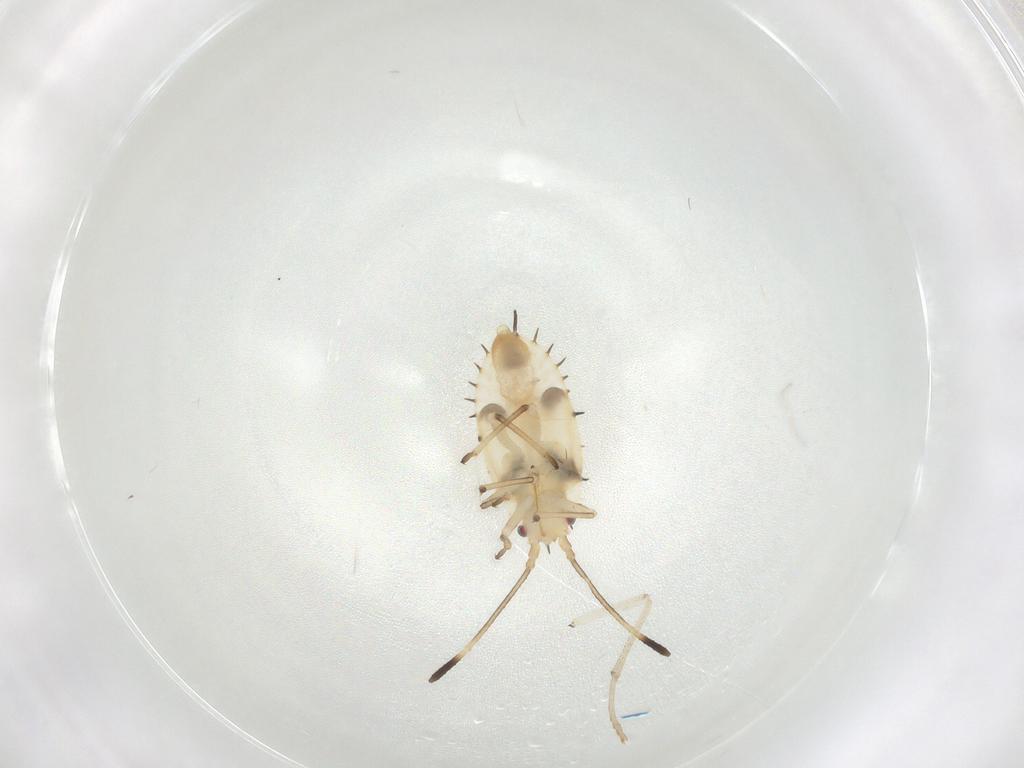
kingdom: Animalia
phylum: Arthropoda
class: Insecta
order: Hemiptera
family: Tingidae
